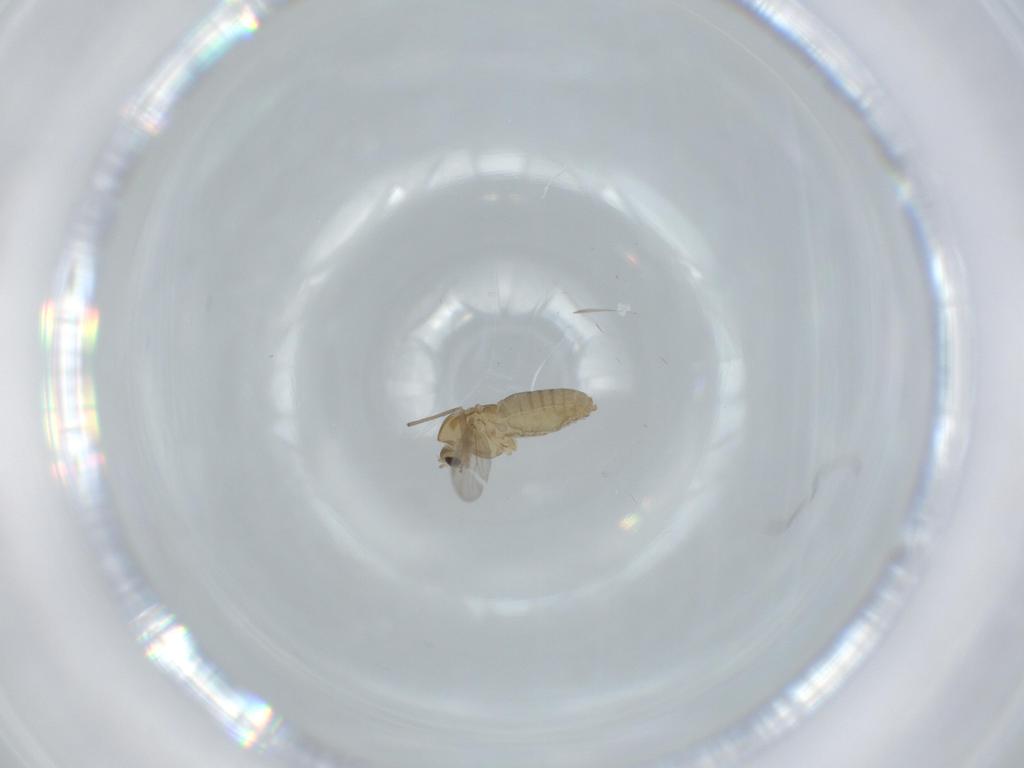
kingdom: Animalia
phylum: Arthropoda
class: Insecta
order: Diptera
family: Chironomidae
